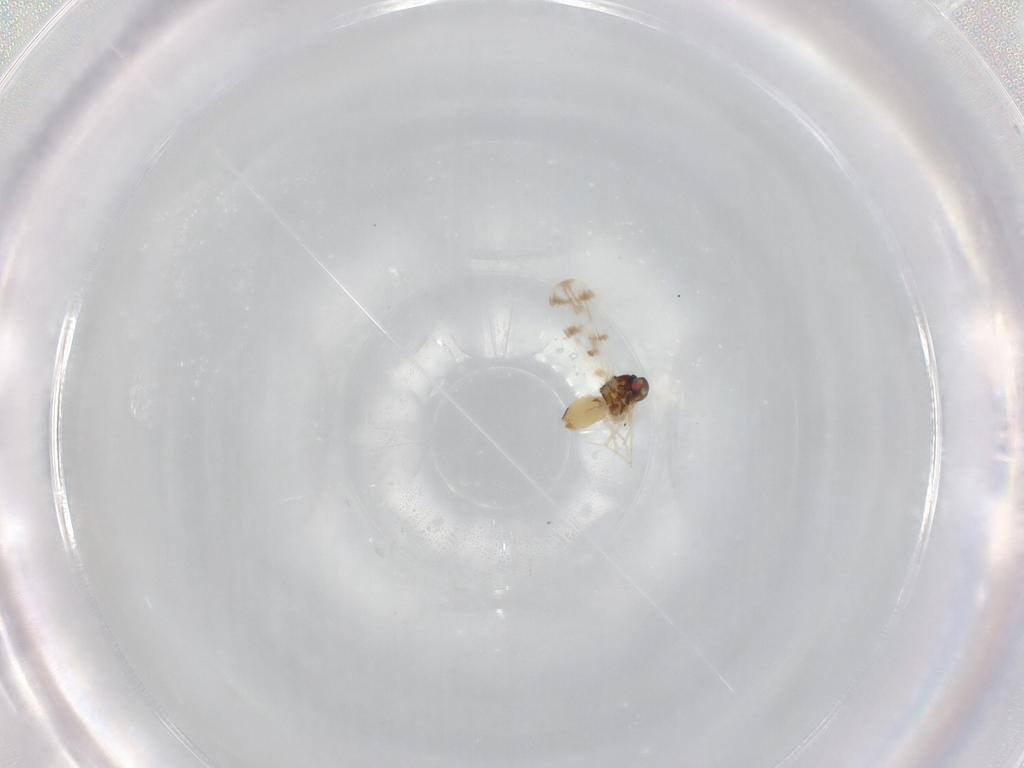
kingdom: Animalia
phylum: Arthropoda
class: Insecta
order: Hemiptera
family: Aleyrodidae
